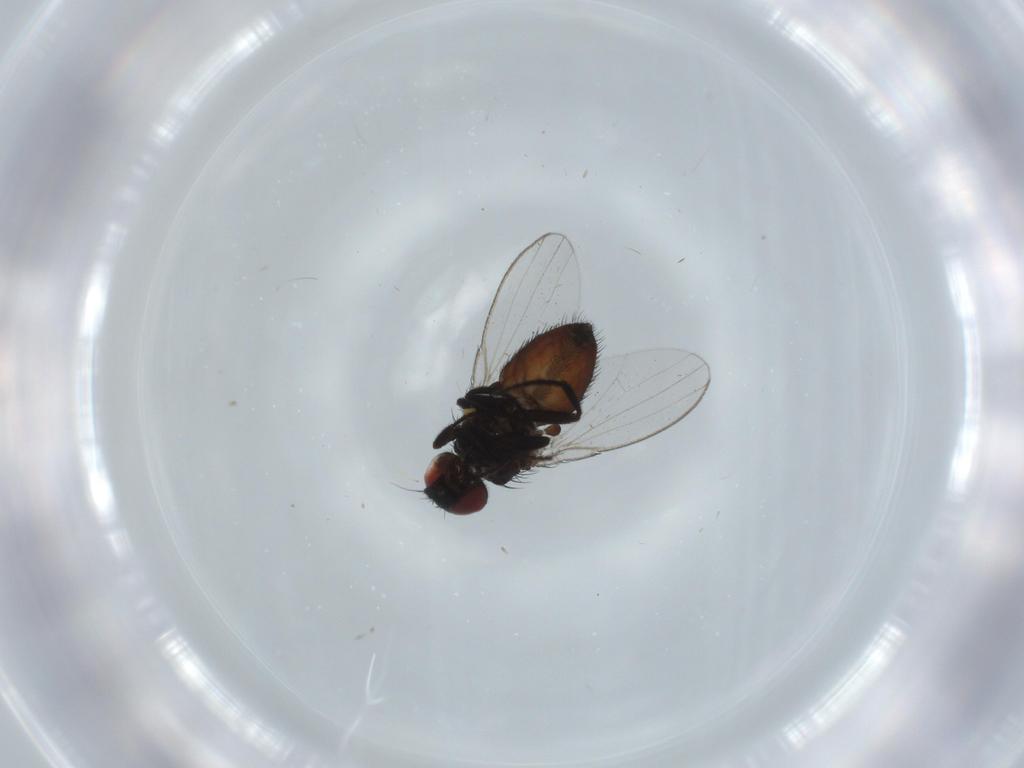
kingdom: Animalia
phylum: Arthropoda
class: Insecta
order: Diptera
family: Milichiidae
